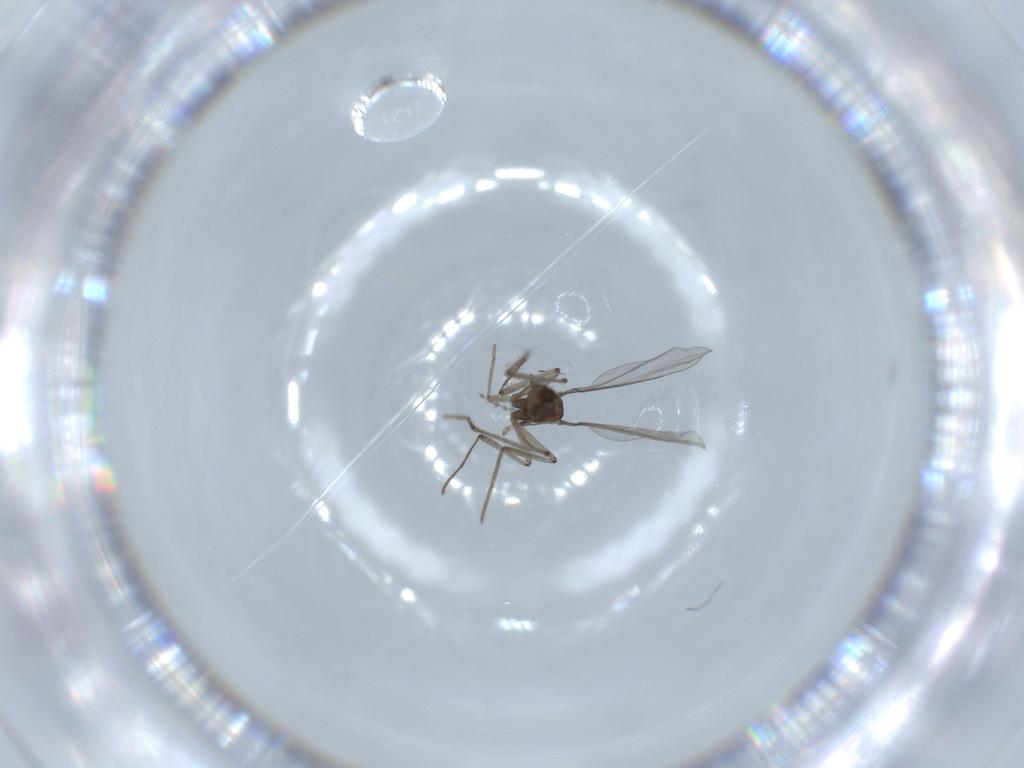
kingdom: Animalia
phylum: Arthropoda
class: Insecta
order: Diptera
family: Cecidomyiidae
